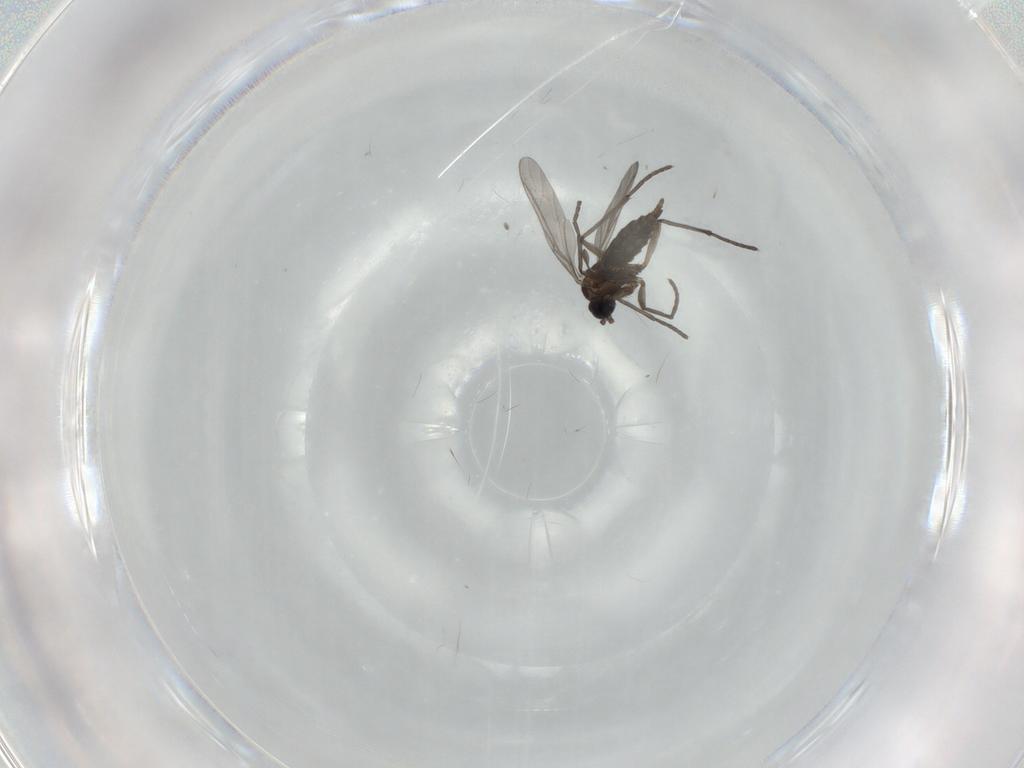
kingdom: Animalia
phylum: Arthropoda
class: Insecta
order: Diptera
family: Sciaridae
